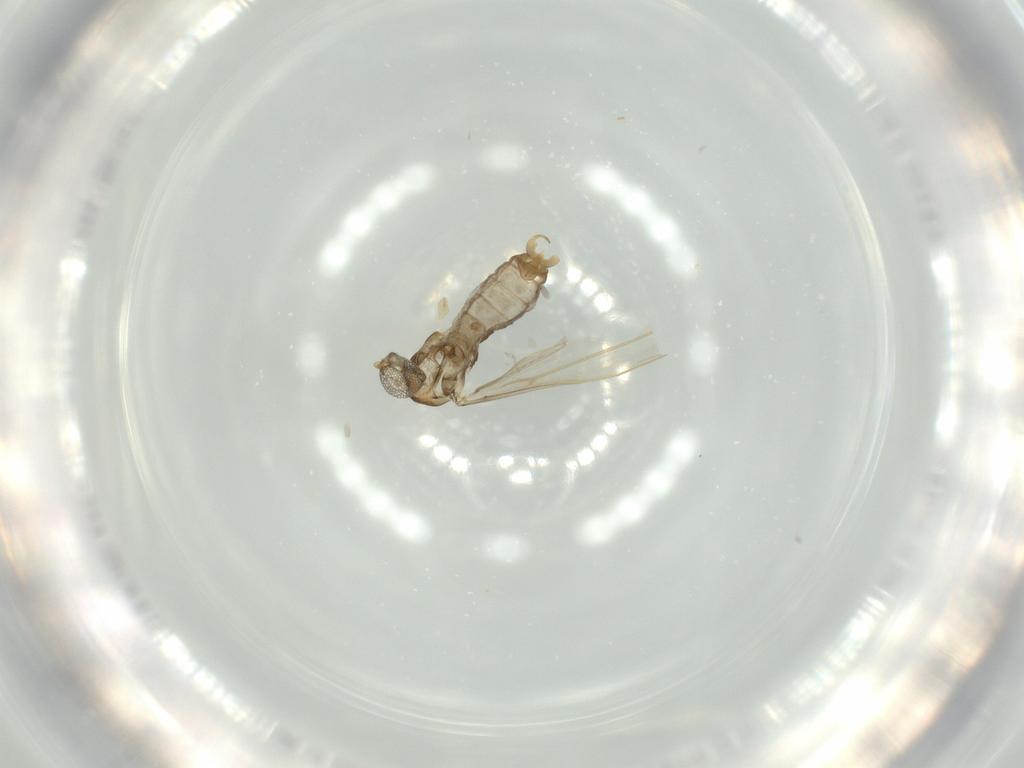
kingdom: Animalia
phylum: Arthropoda
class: Insecta
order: Diptera
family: Cecidomyiidae
